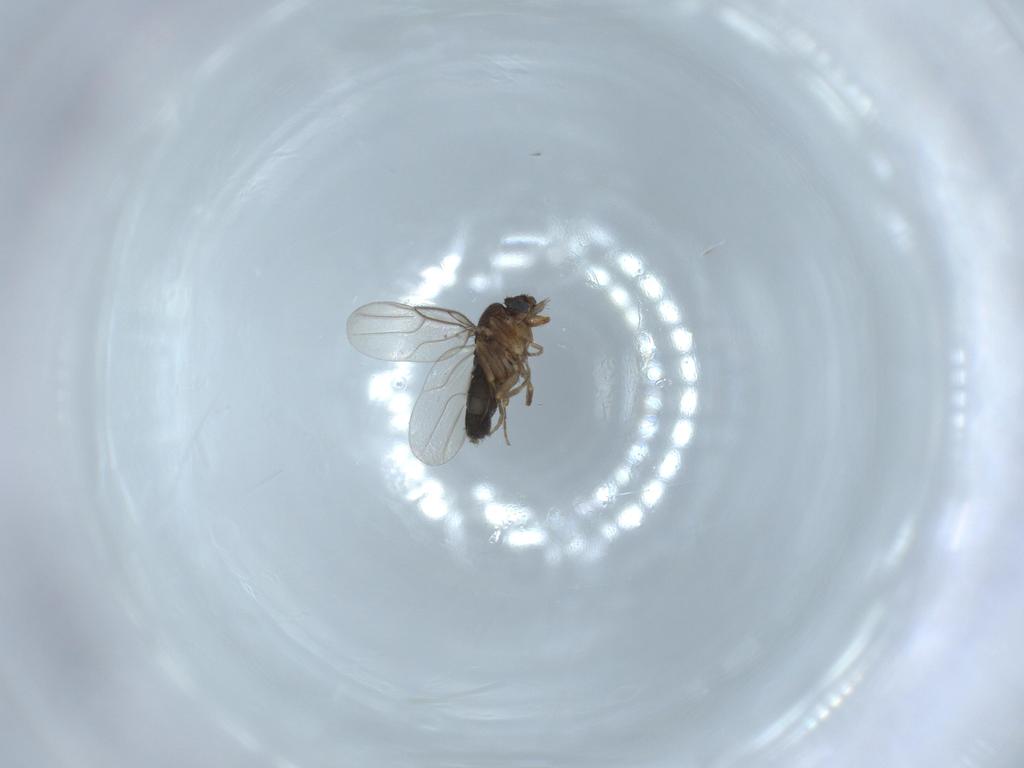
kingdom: Animalia
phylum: Arthropoda
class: Insecta
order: Diptera
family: Phoridae
